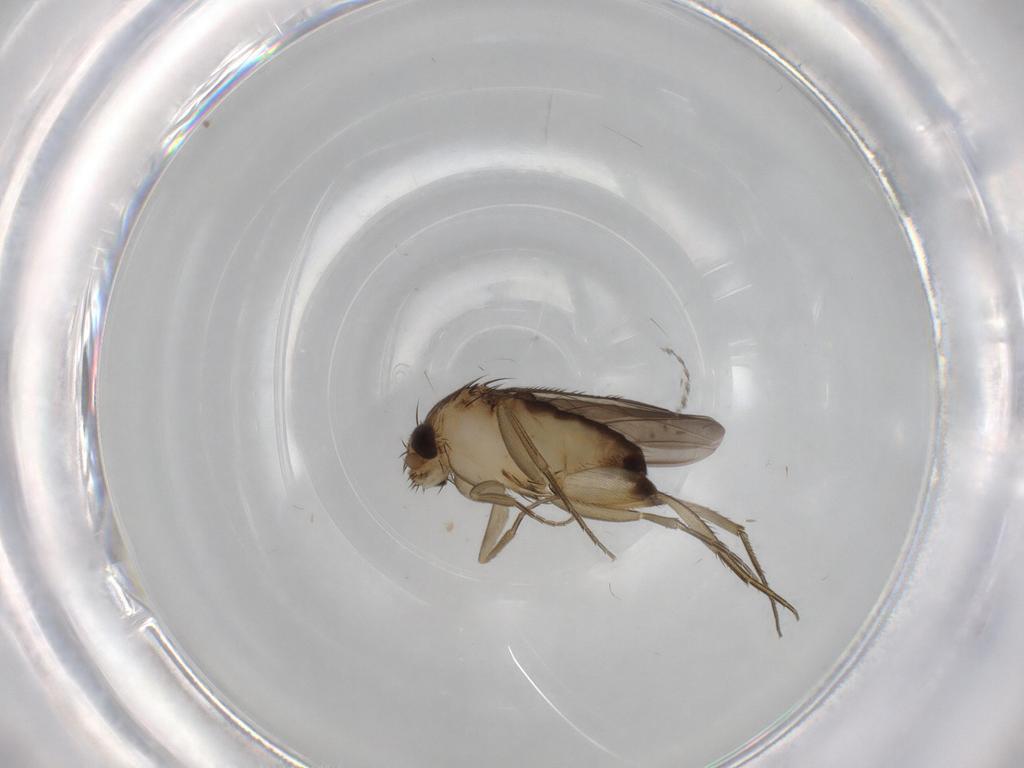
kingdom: Animalia
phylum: Arthropoda
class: Insecta
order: Diptera
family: Phoridae
